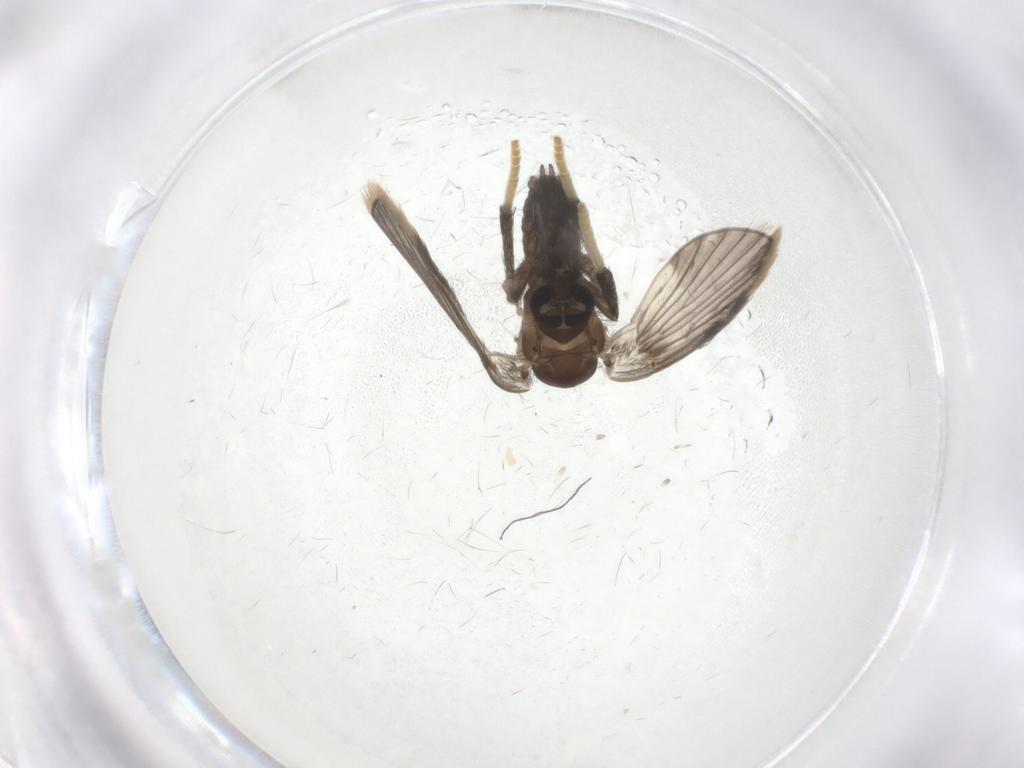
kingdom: Animalia
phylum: Arthropoda
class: Insecta
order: Diptera
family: Psychodidae
